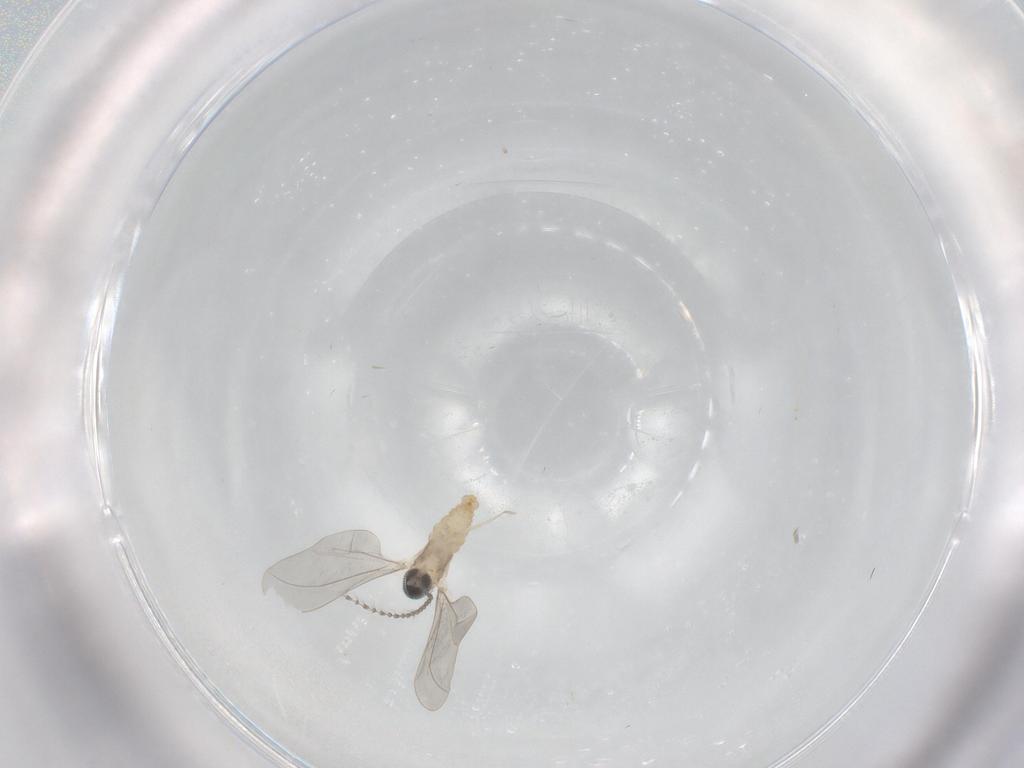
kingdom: Animalia
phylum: Arthropoda
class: Insecta
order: Diptera
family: Cecidomyiidae
